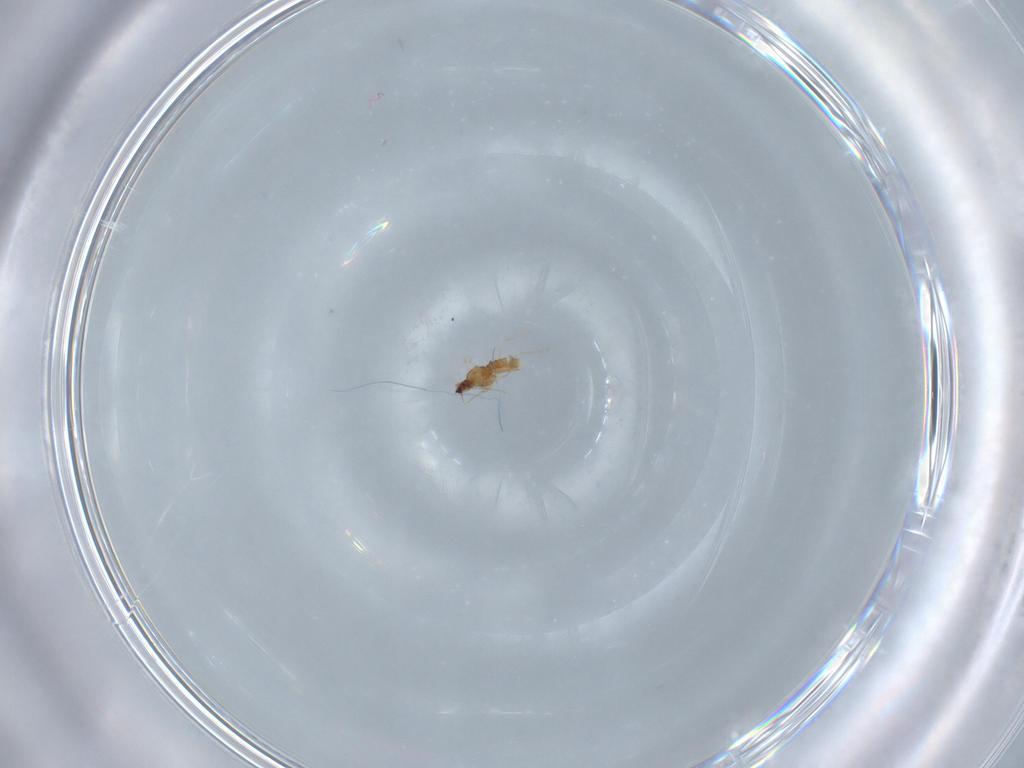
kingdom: Animalia
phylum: Arthropoda
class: Insecta
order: Diptera
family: Cecidomyiidae
